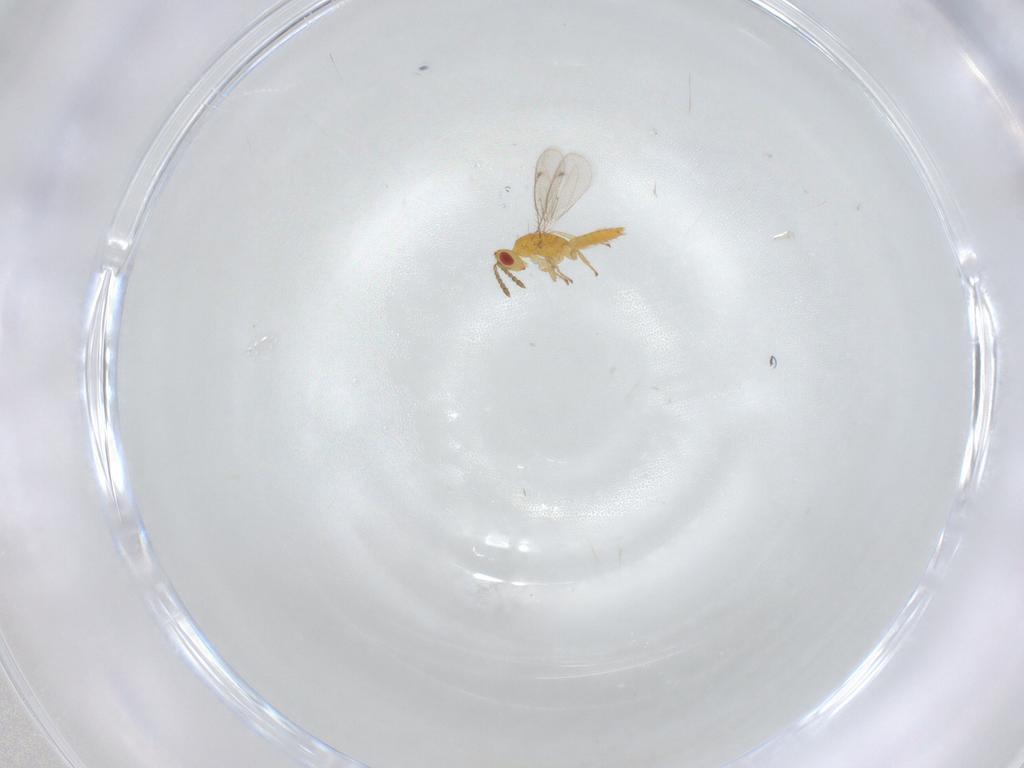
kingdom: Animalia
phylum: Arthropoda
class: Insecta
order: Hymenoptera
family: Eulophidae
